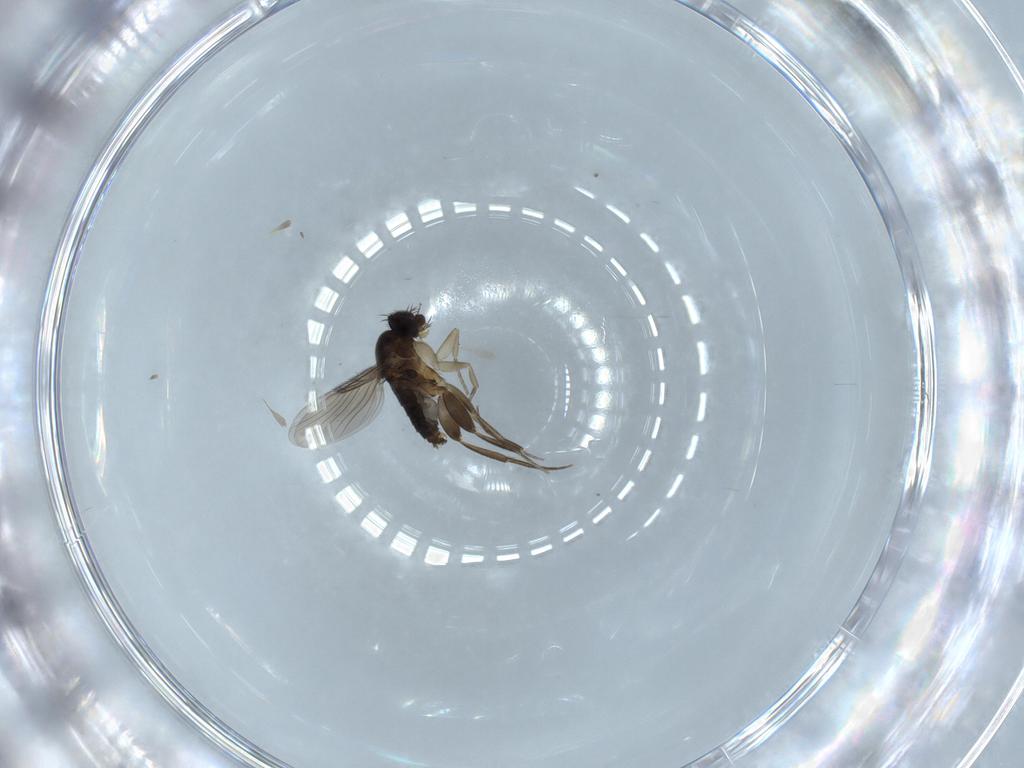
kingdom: Animalia
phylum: Arthropoda
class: Insecta
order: Diptera
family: Phoridae
